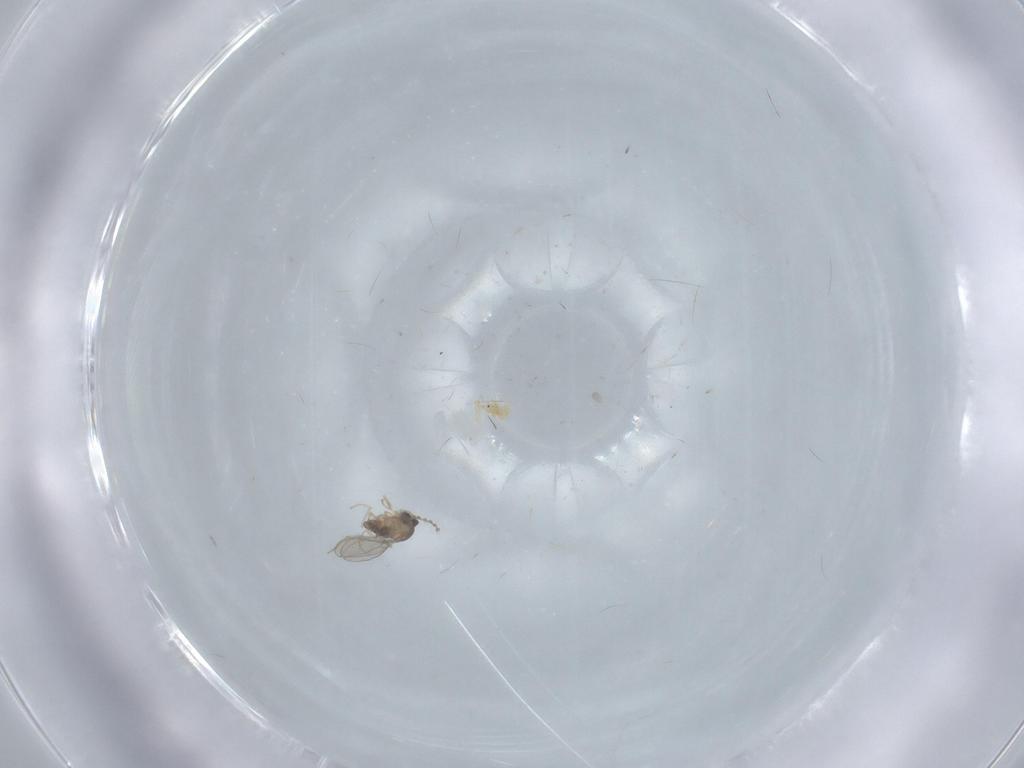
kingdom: Animalia
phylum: Arthropoda
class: Insecta
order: Diptera
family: Cecidomyiidae
